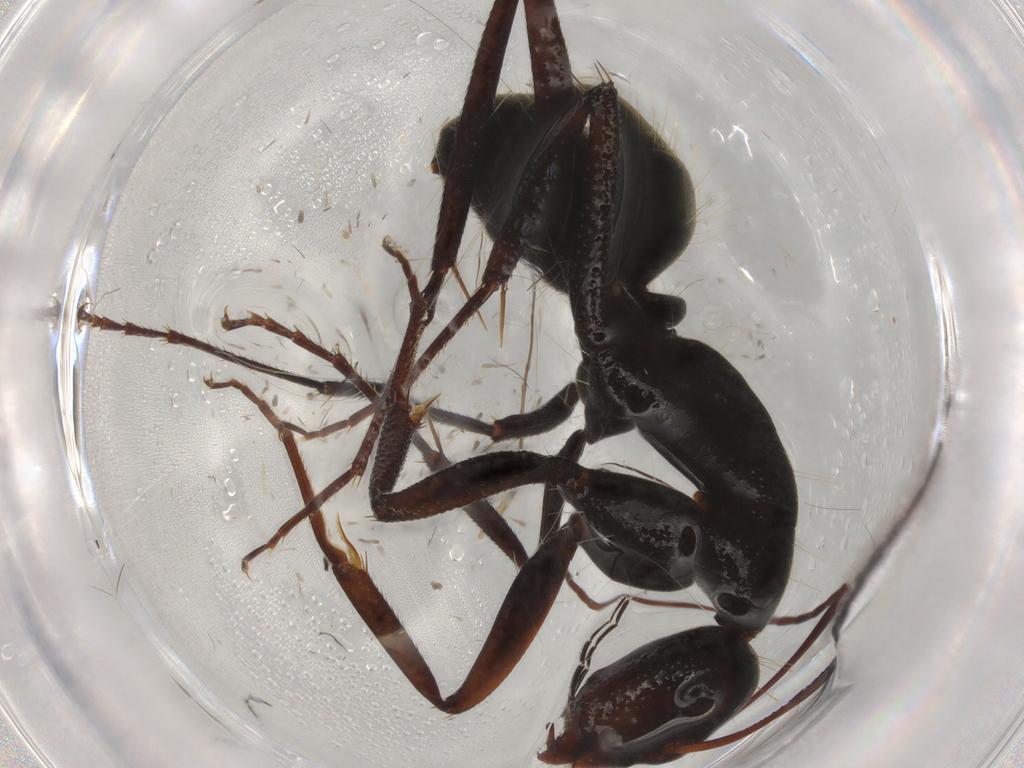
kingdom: Animalia
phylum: Arthropoda
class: Insecta
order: Hymenoptera
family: Formicidae
